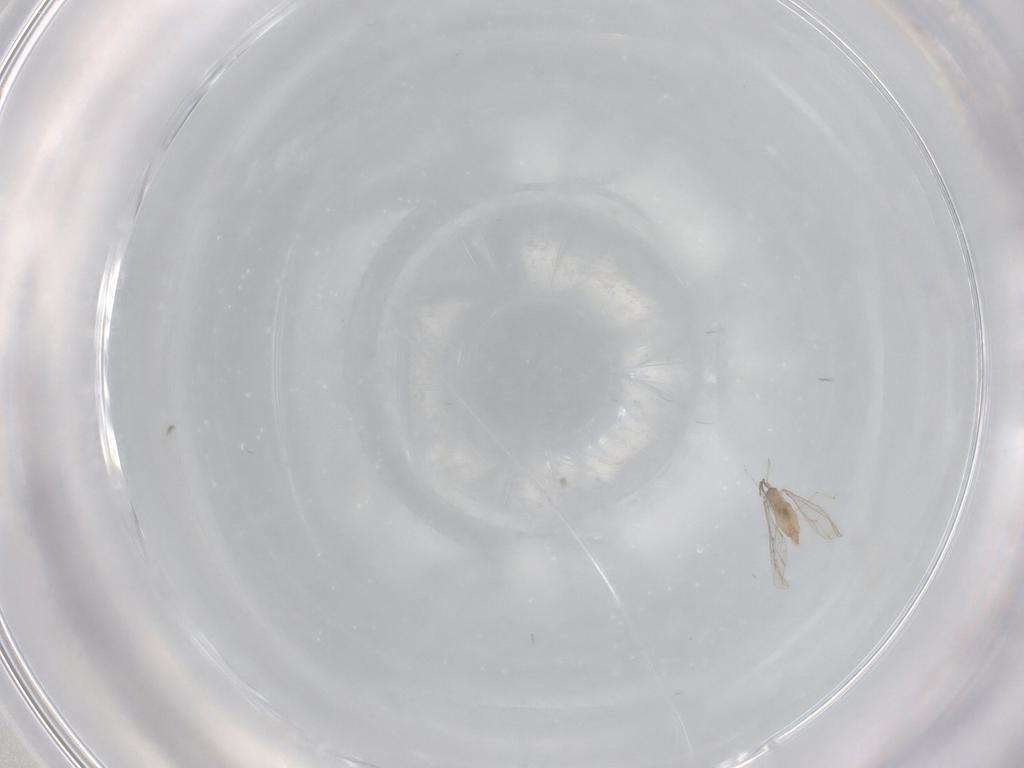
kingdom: Animalia
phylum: Arthropoda
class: Insecta
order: Diptera
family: Cecidomyiidae
